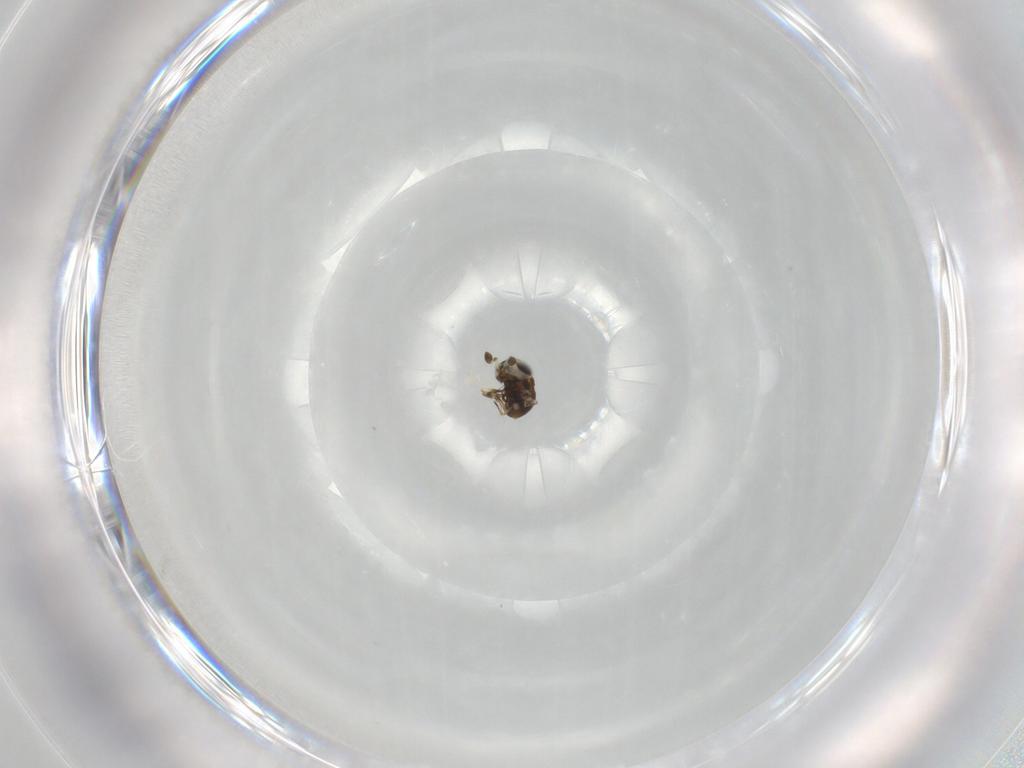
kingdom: Animalia
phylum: Arthropoda
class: Insecta
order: Hymenoptera
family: Scelionidae
